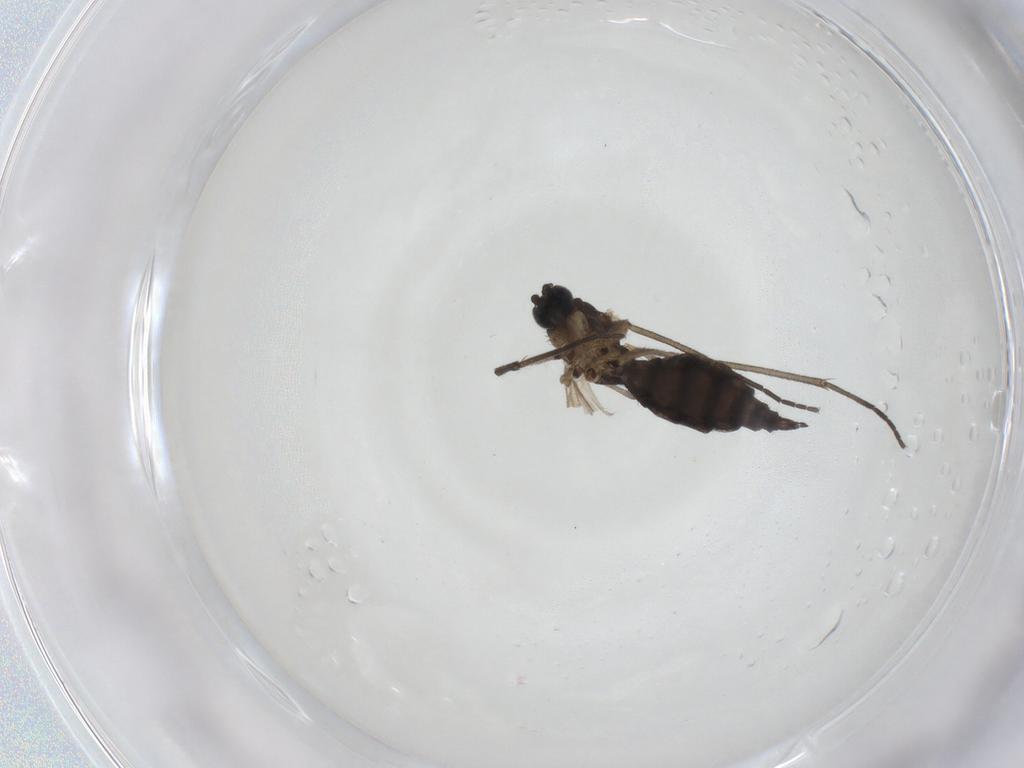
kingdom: Animalia
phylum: Arthropoda
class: Insecta
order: Diptera
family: Sciaridae
